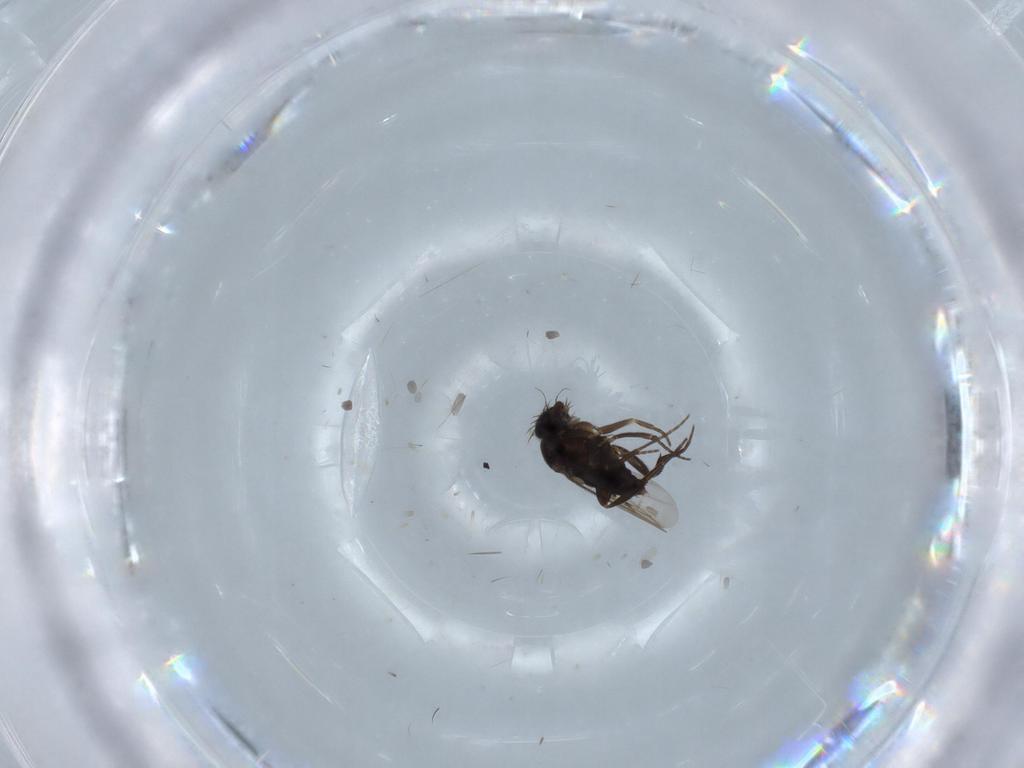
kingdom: Animalia
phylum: Arthropoda
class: Insecta
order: Diptera
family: Phoridae
